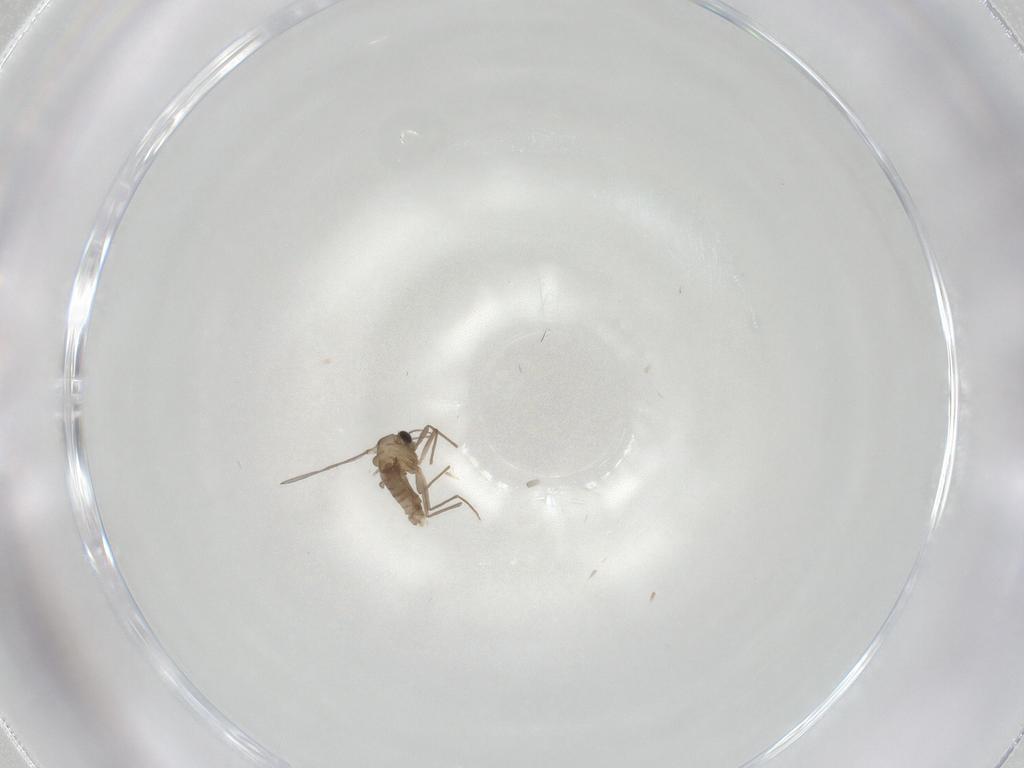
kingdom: Animalia
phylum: Arthropoda
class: Insecta
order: Diptera
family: Chironomidae
